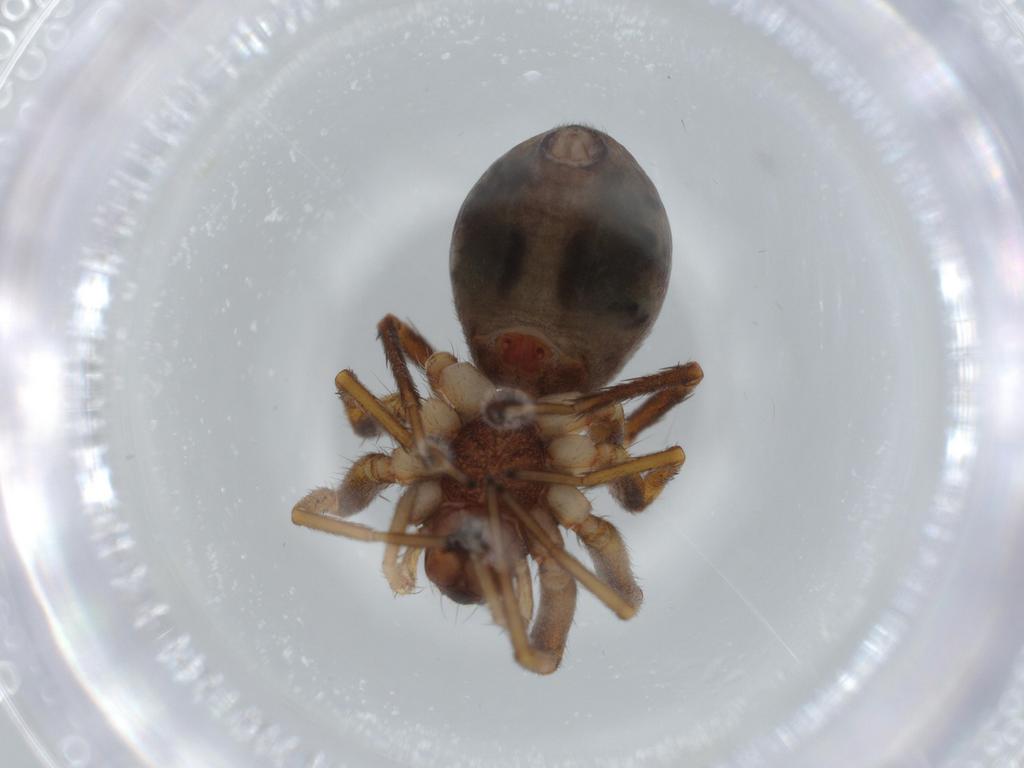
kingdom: Animalia
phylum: Arthropoda
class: Arachnida
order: Araneae
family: Corinnidae
